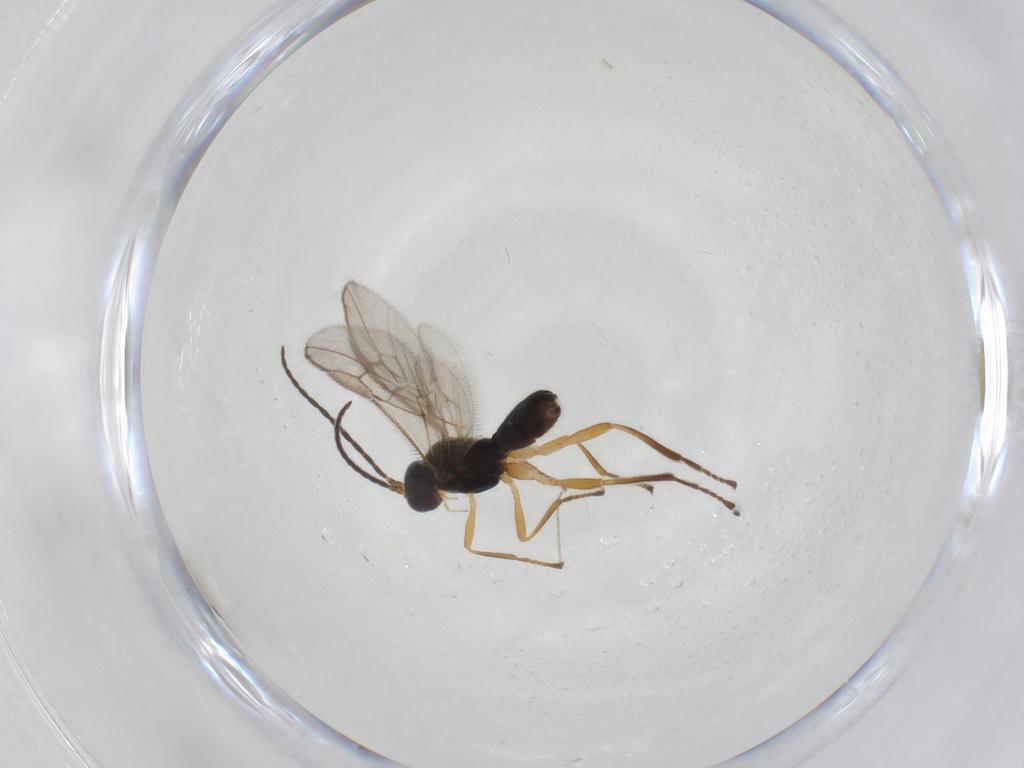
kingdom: Animalia
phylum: Arthropoda
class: Insecta
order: Hymenoptera
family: Braconidae
